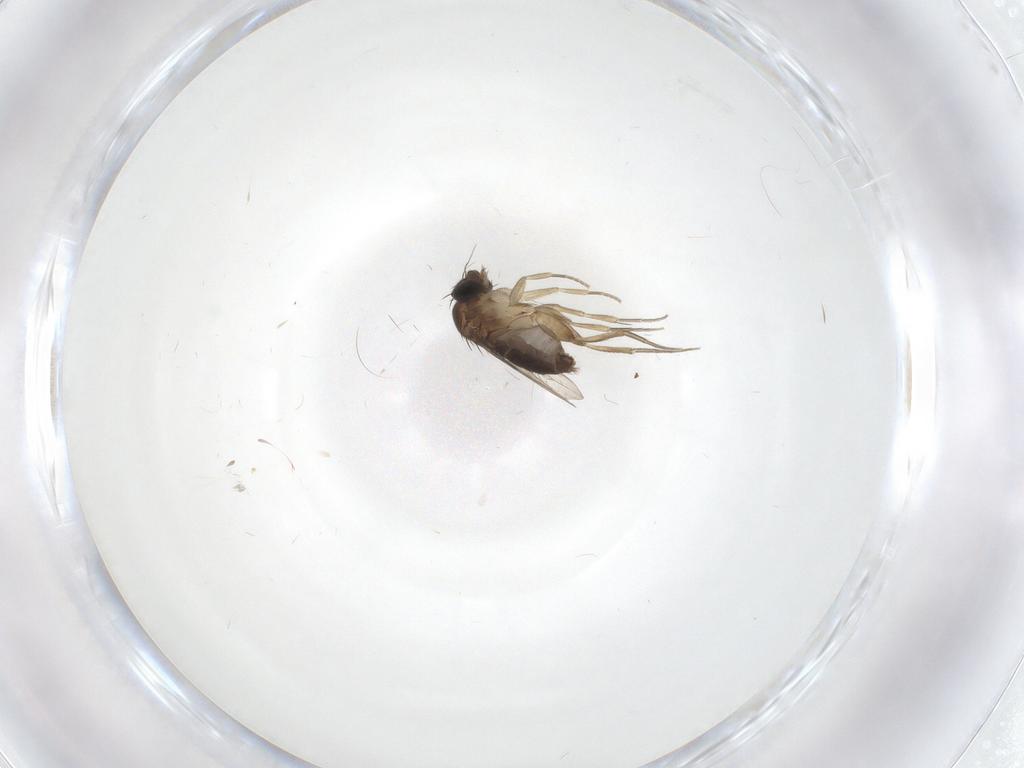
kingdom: Animalia
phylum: Arthropoda
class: Insecta
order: Diptera
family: Phoridae
